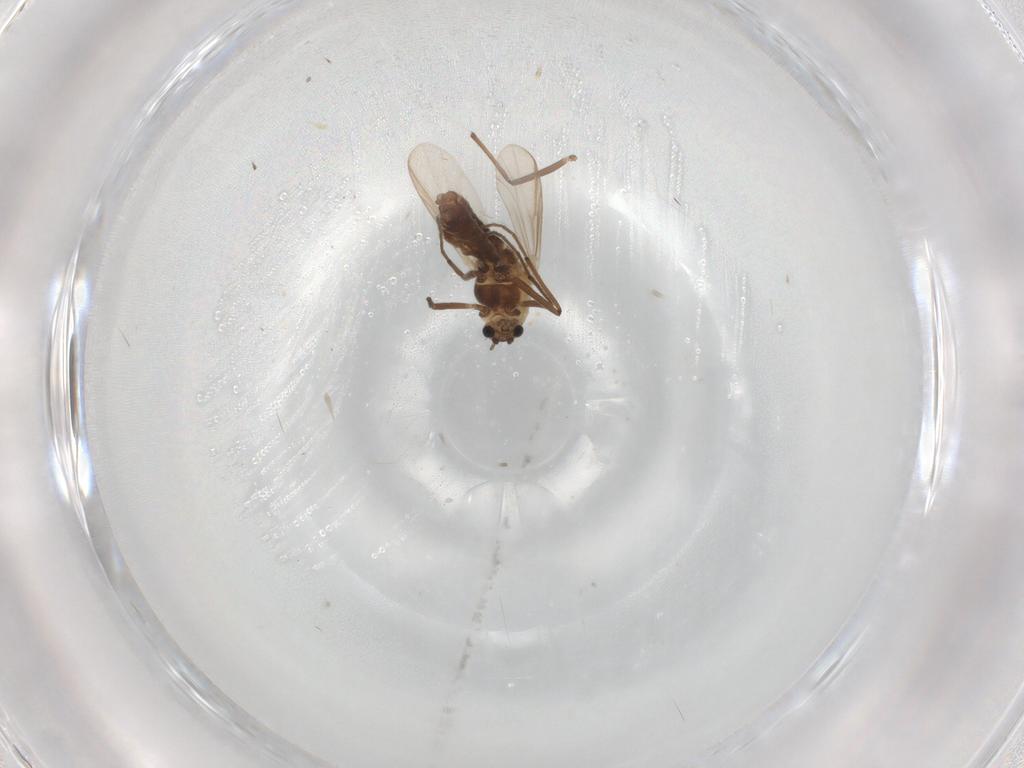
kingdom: Animalia
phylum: Arthropoda
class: Insecta
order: Diptera
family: Chironomidae
